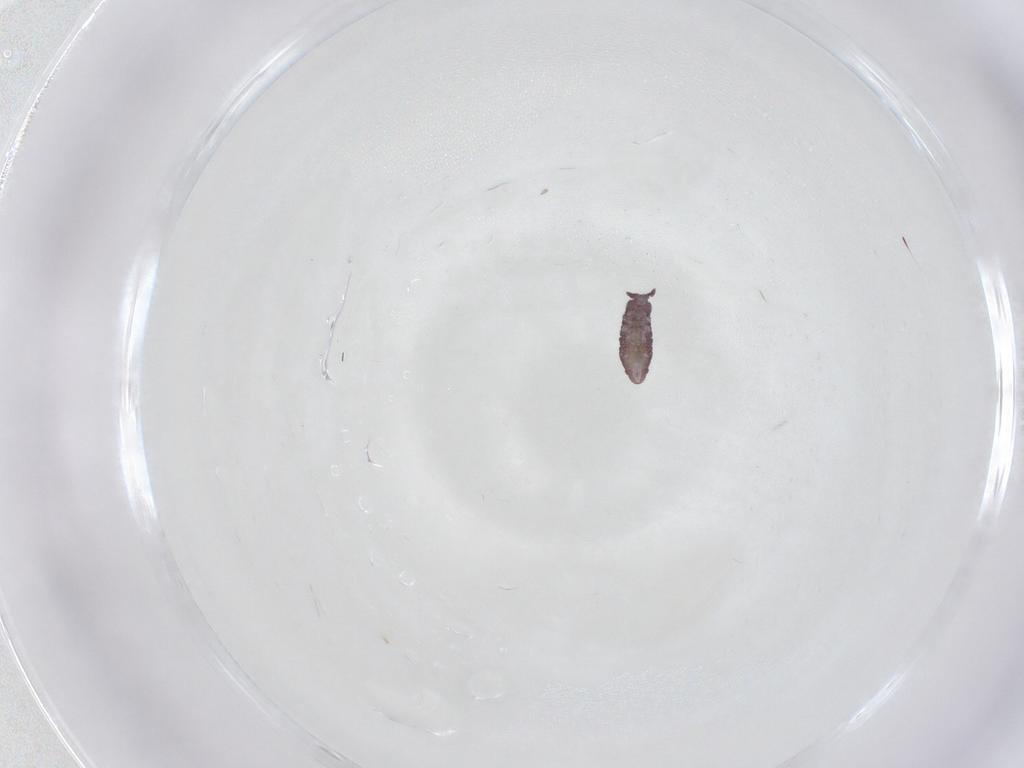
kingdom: Animalia
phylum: Arthropoda
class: Collembola
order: Poduromorpha
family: Hypogastruridae
